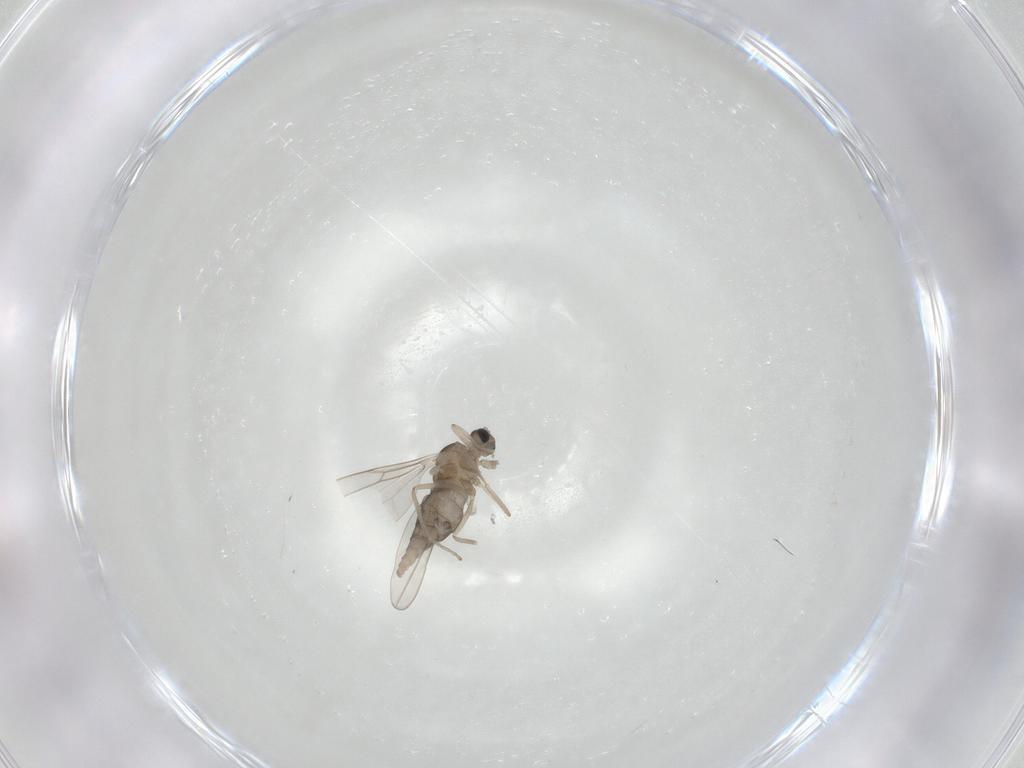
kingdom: Animalia
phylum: Arthropoda
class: Insecta
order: Diptera
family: Cecidomyiidae
